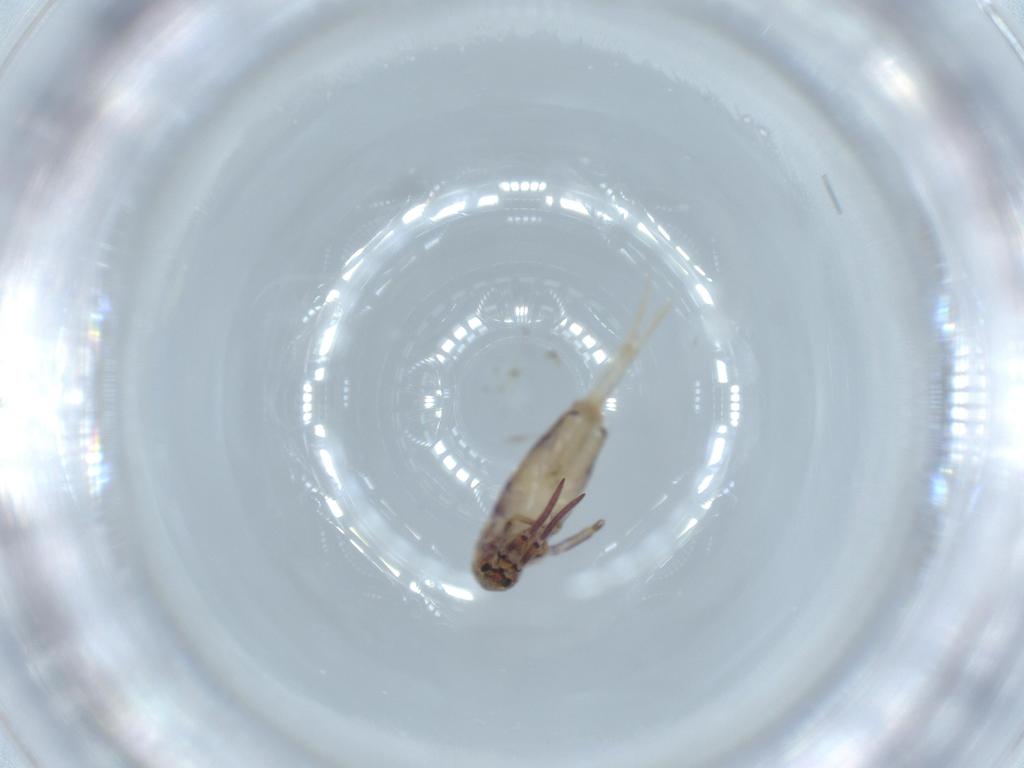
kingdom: Animalia
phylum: Arthropoda
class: Collembola
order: Entomobryomorpha
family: Entomobryidae
